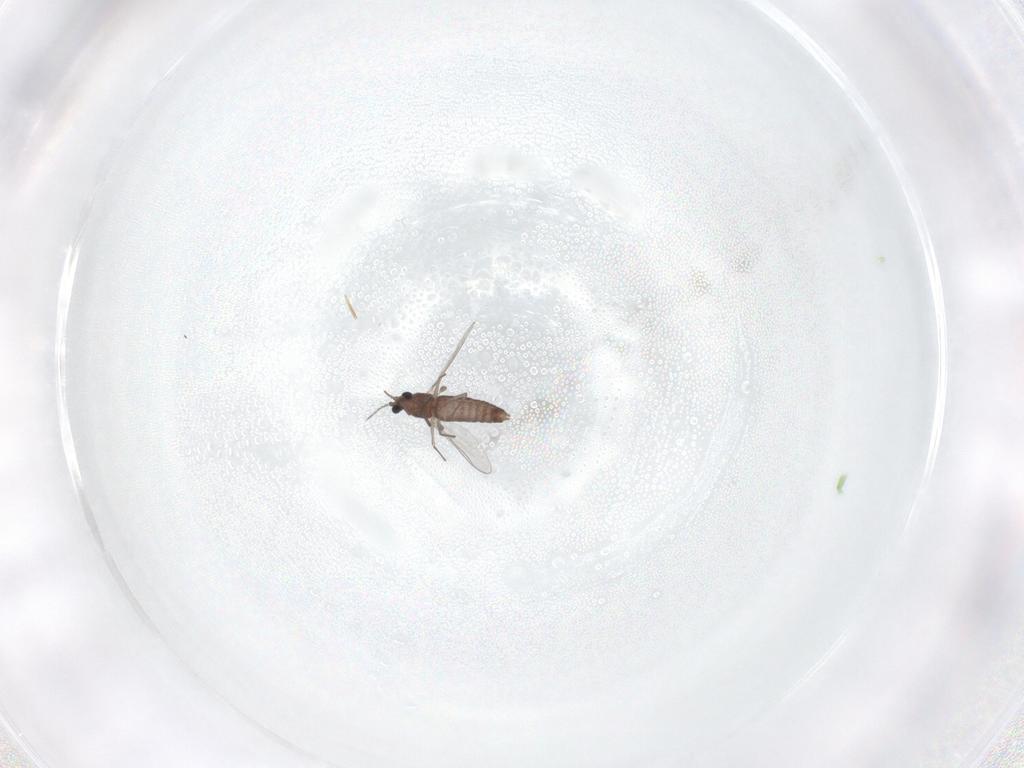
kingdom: Animalia
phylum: Arthropoda
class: Insecta
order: Diptera
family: Chironomidae
